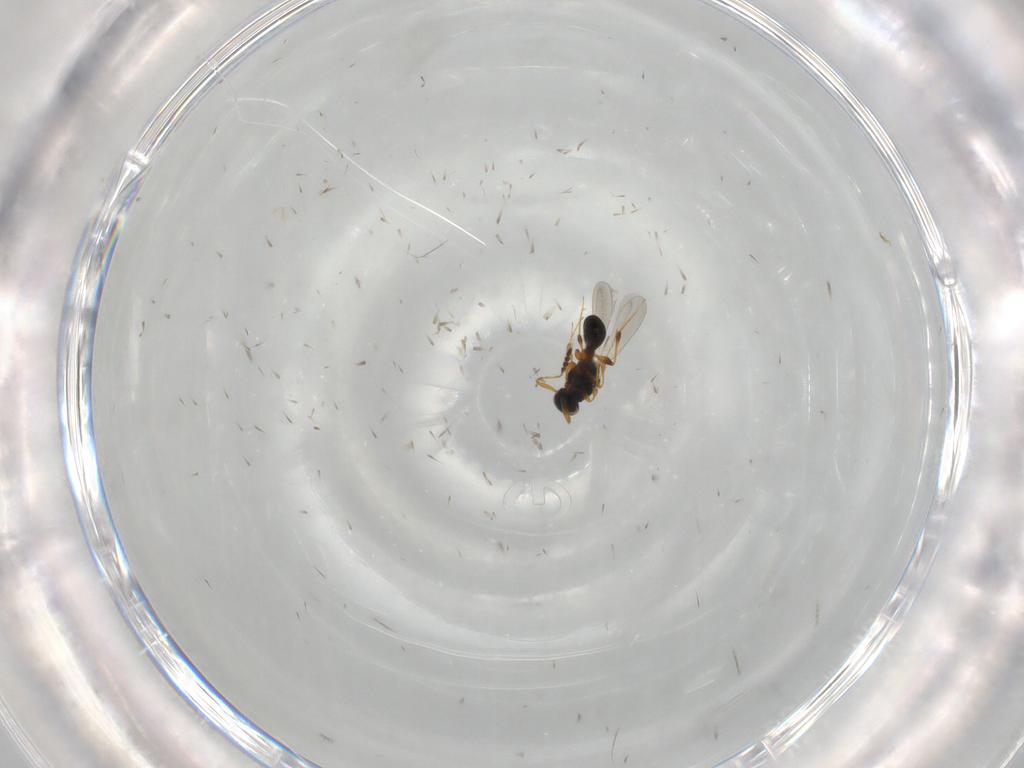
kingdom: Animalia
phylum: Arthropoda
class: Insecta
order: Hymenoptera
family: Platygastridae
